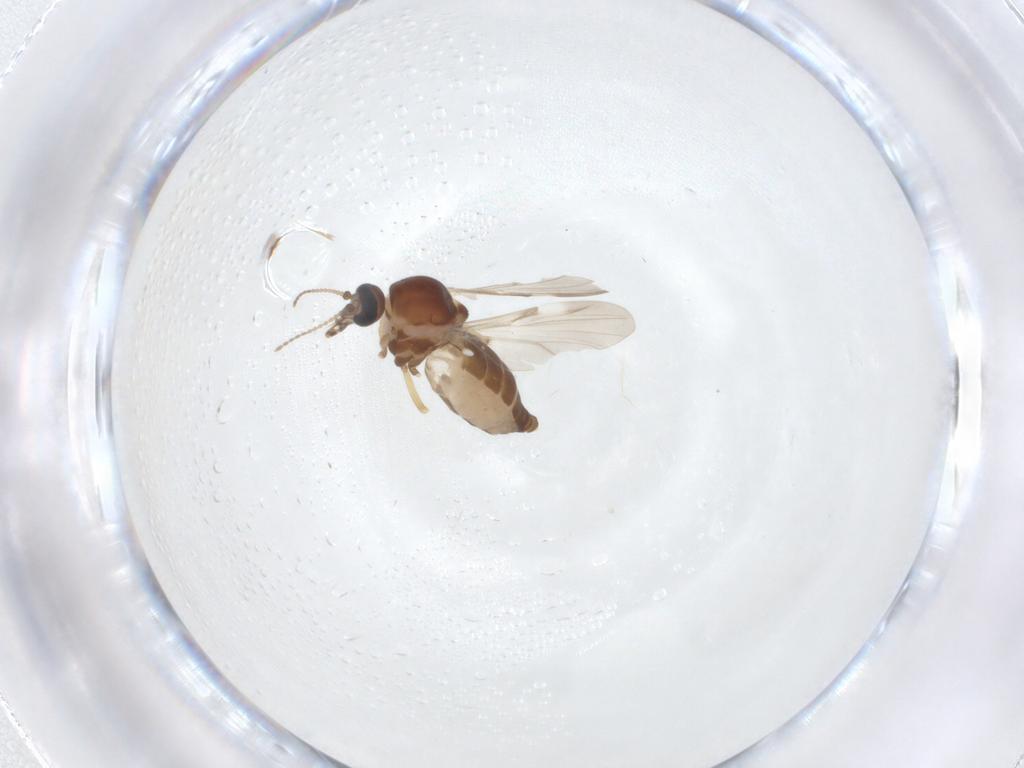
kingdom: Animalia
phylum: Arthropoda
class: Insecta
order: Diptera
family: Ceratopogonidae
